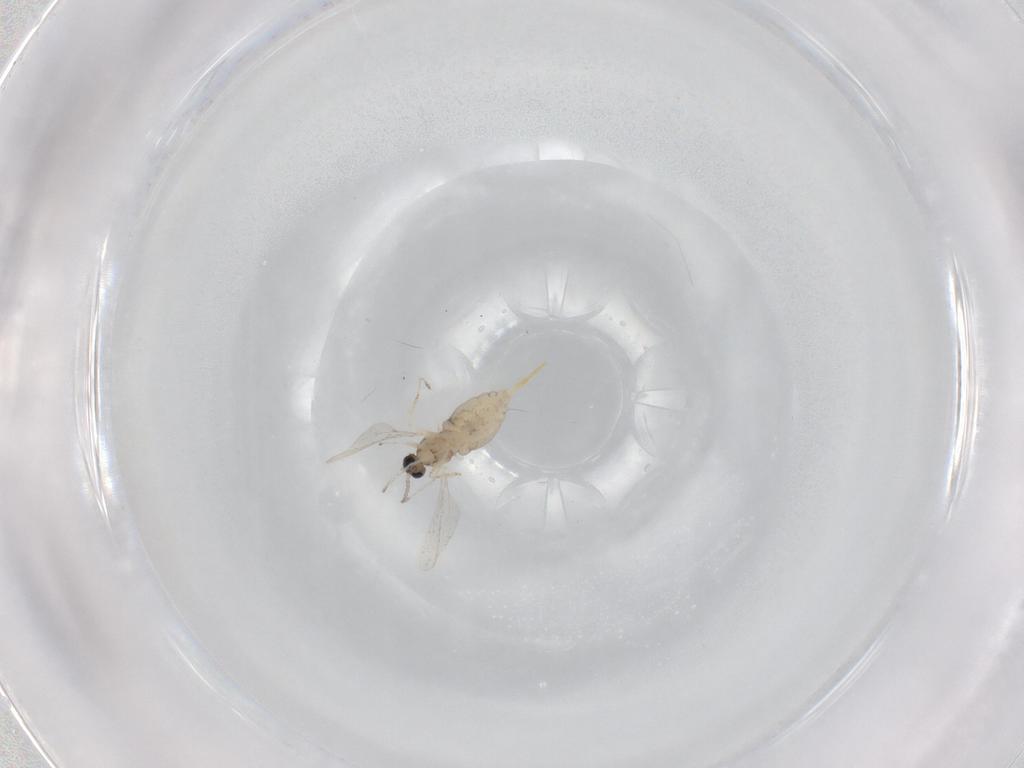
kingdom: Animalia
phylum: Arthropoda
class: Insecta
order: Diptera
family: Cecidomyiidae
